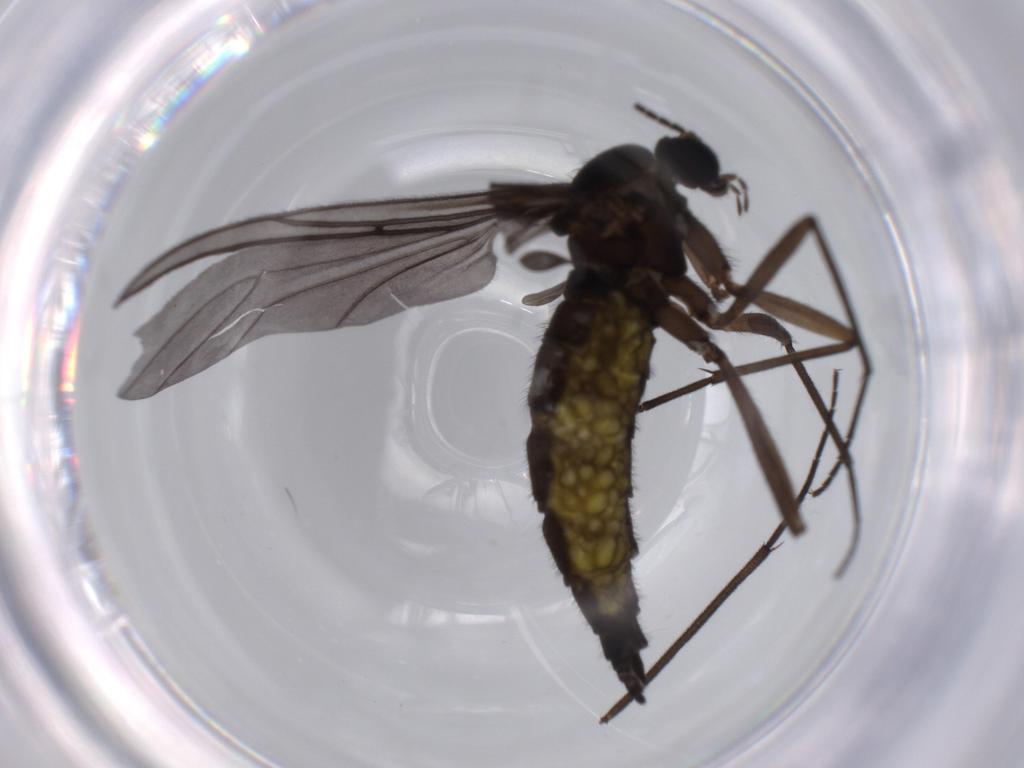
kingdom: Animalia
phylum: Arthropoda
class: Insecta
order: Diptera
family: Sciaridae
